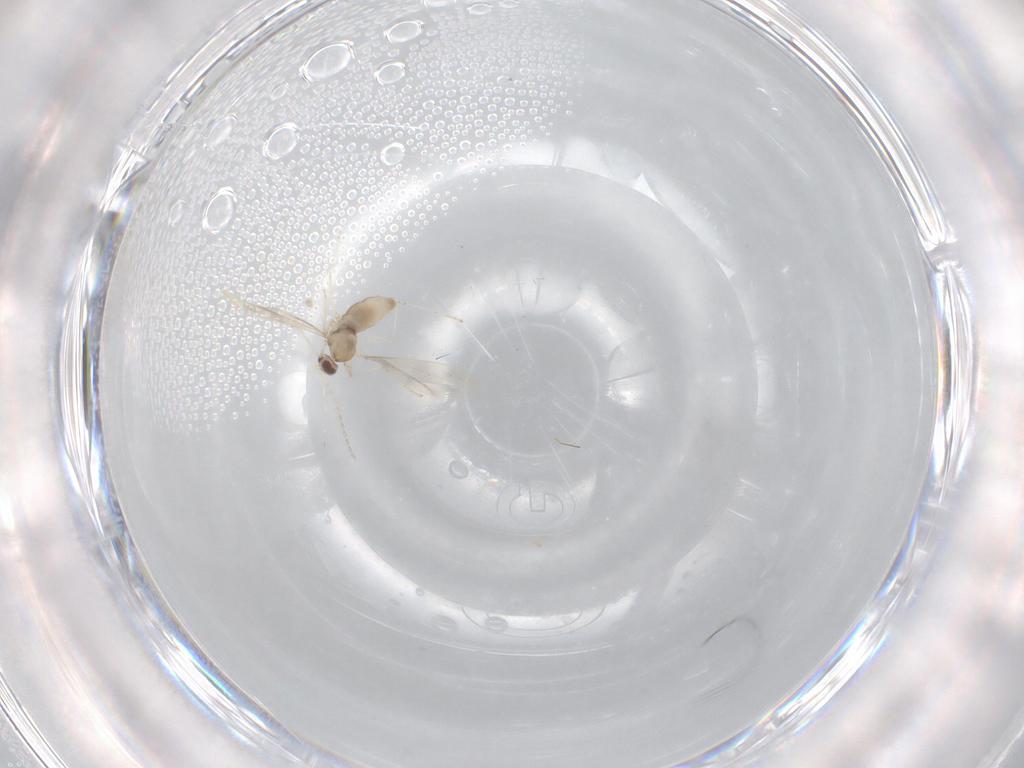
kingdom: Animalia
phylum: Arthropoda
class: Insecta
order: Diptera
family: Cecidomyiidae
